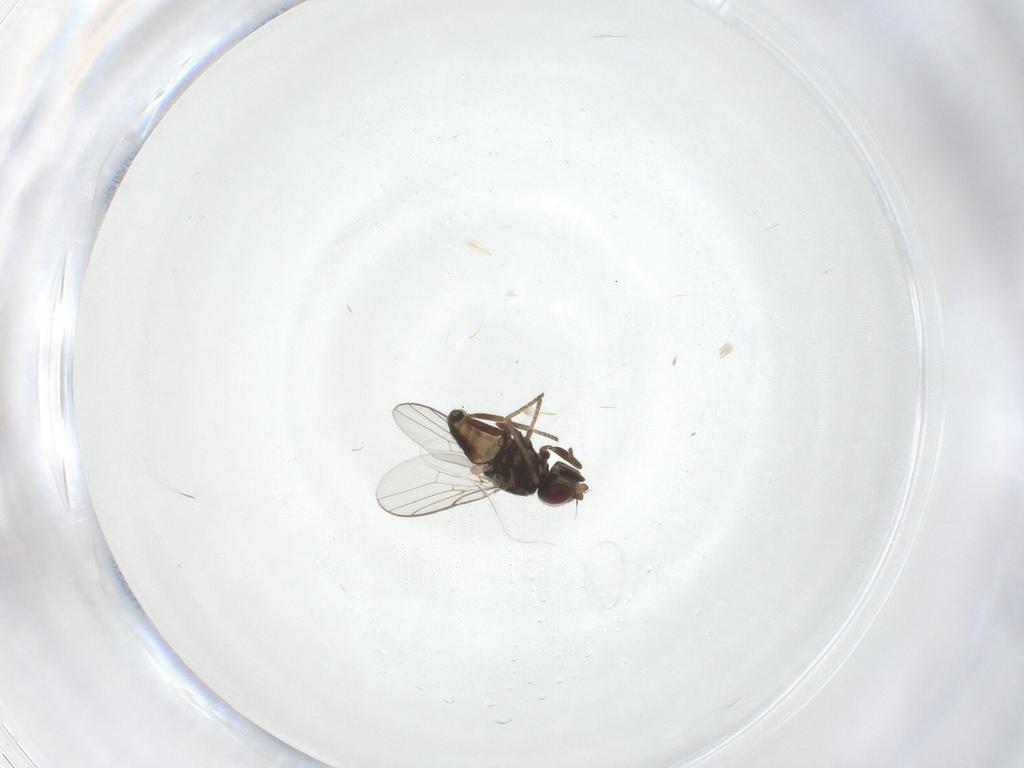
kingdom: Animalia
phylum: Arthropoda
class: Insecta
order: Diptera
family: Chloropidae
